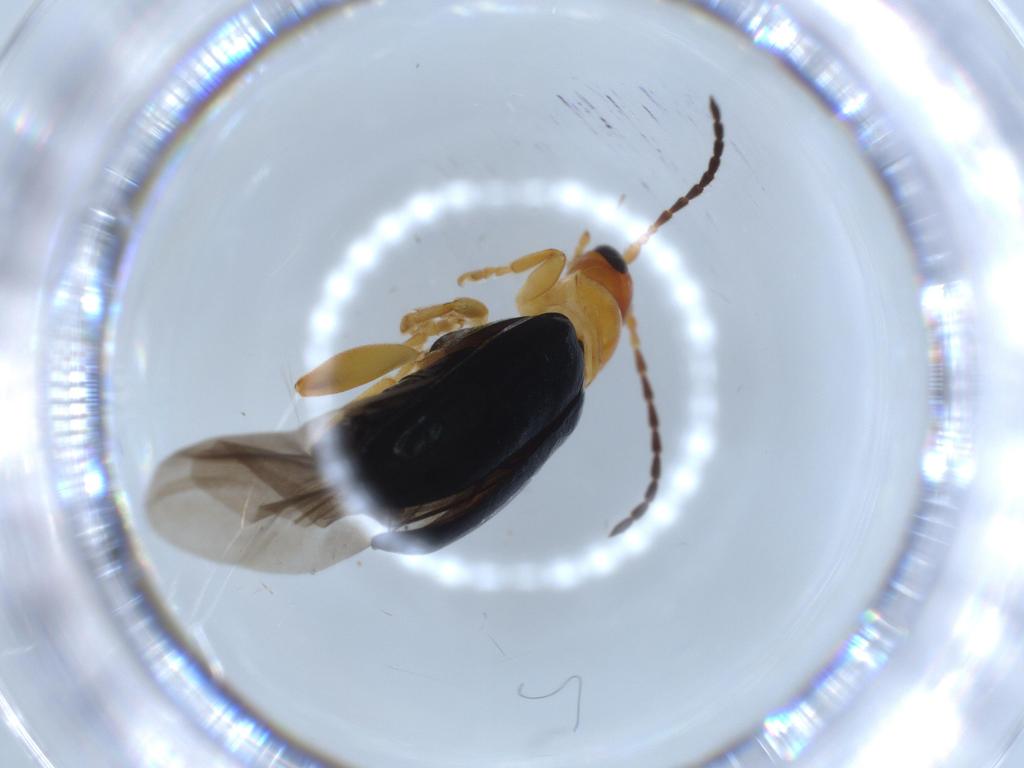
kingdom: Animalia
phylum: Arthropoda
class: Insecta
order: Coleoptera
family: Chrysomelidae
